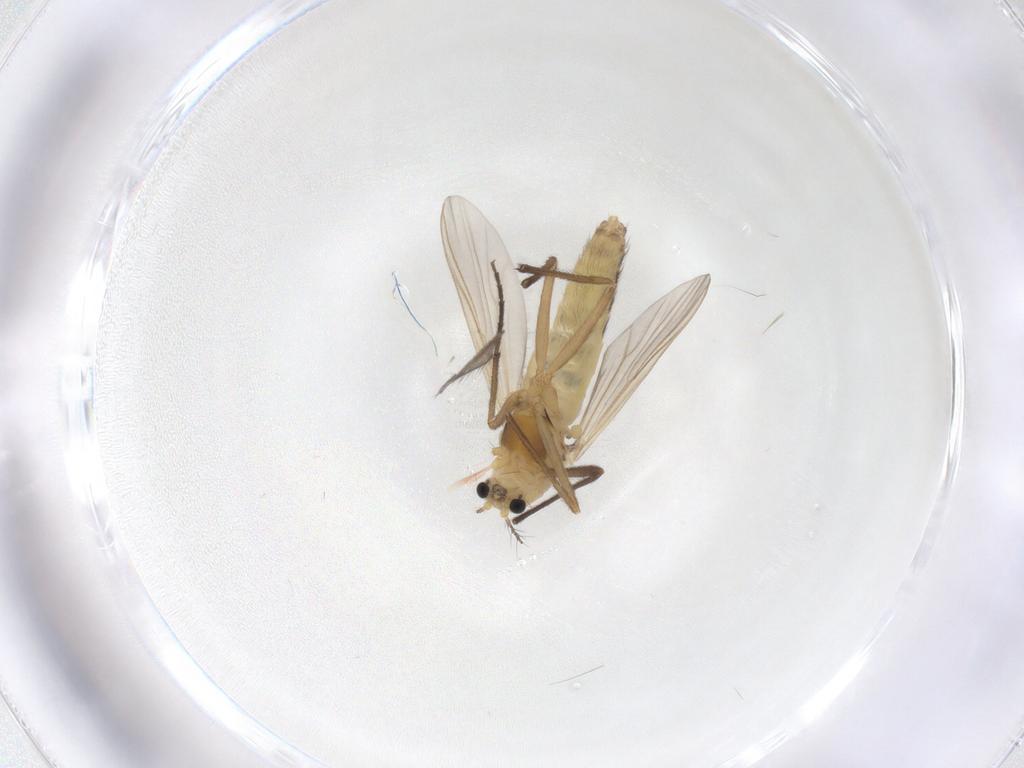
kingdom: Animalia
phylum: Arthropoda
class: Insecta
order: Diptera
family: Chironomidae
